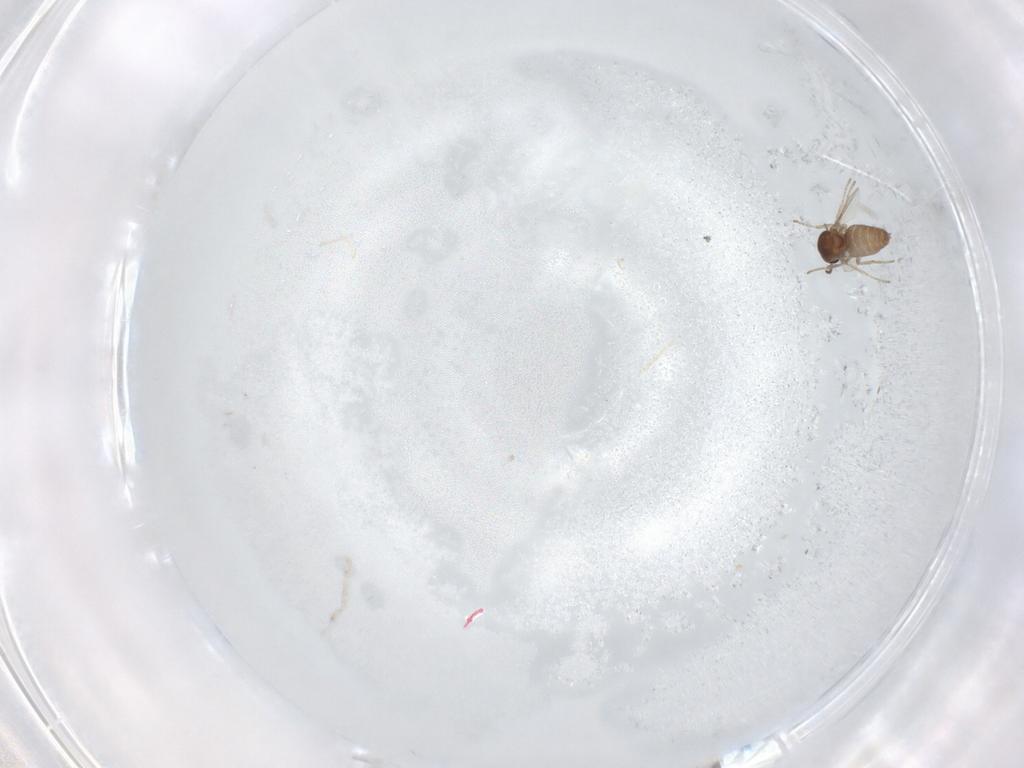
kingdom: Animalia
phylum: Arthropoda
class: Insecta
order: Diptera
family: Ceratopogonidae
